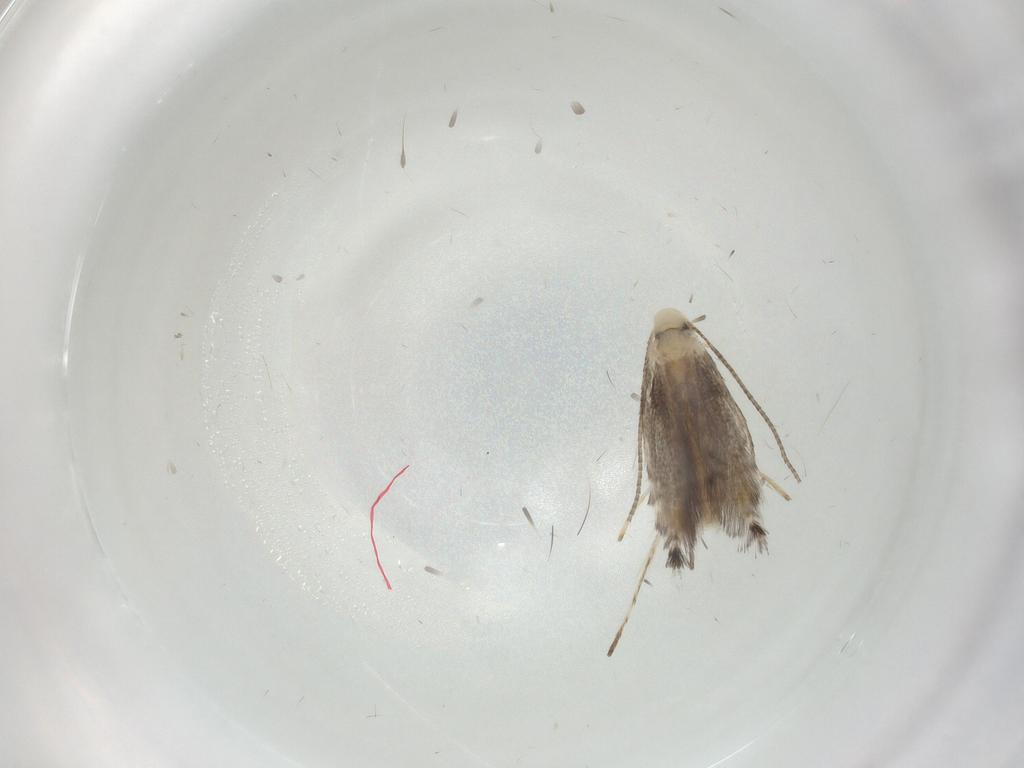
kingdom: Animalia
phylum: Arthropoda
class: Insecta
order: Lepidoptera
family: Gracillariidae
